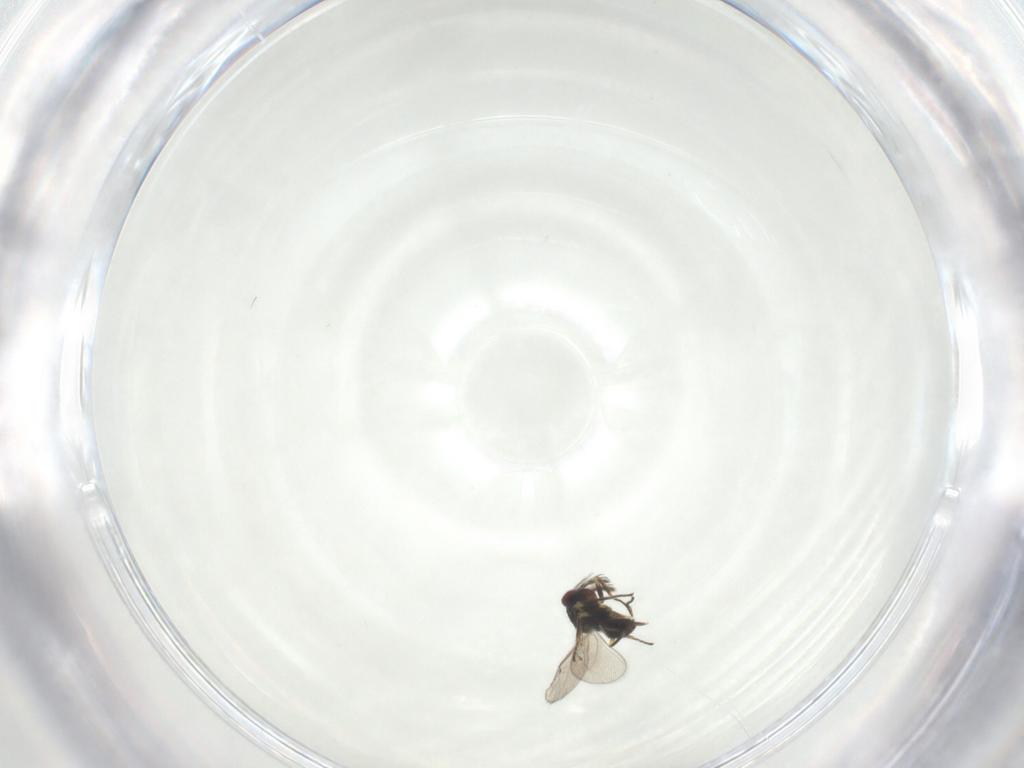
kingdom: Animalia
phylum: Arthropoda
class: Insecta
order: Hymenoptera
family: Eulophidae
